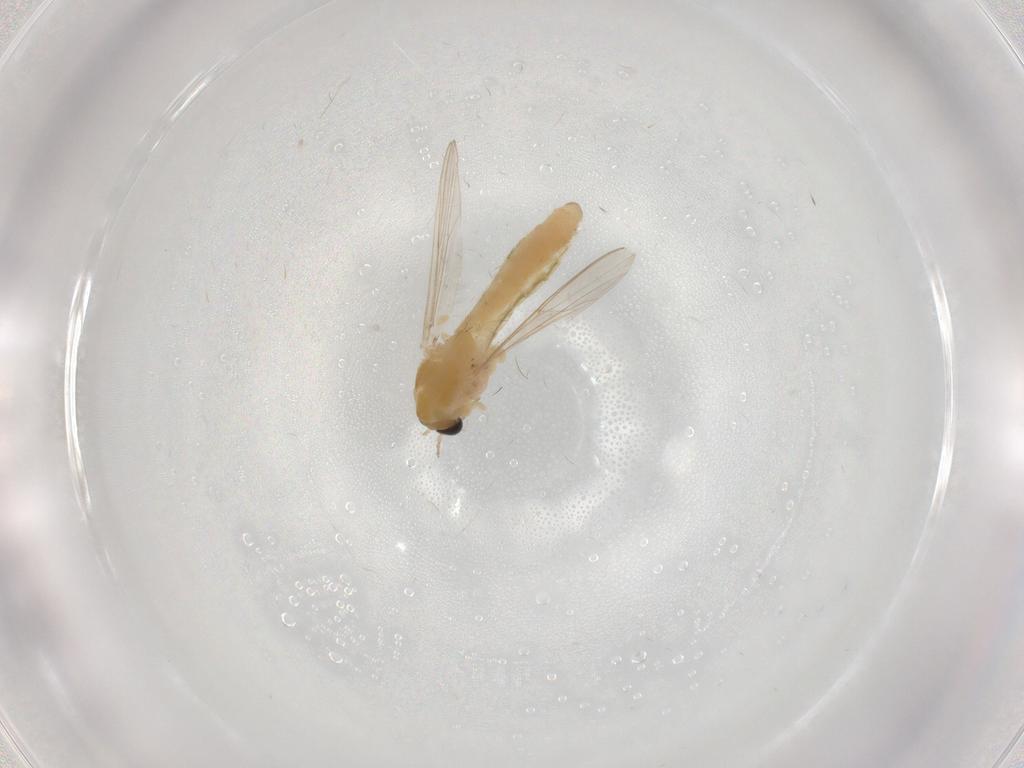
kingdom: Animalia
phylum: Arthropoda
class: Insecta
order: Diptera
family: Chironomidae
